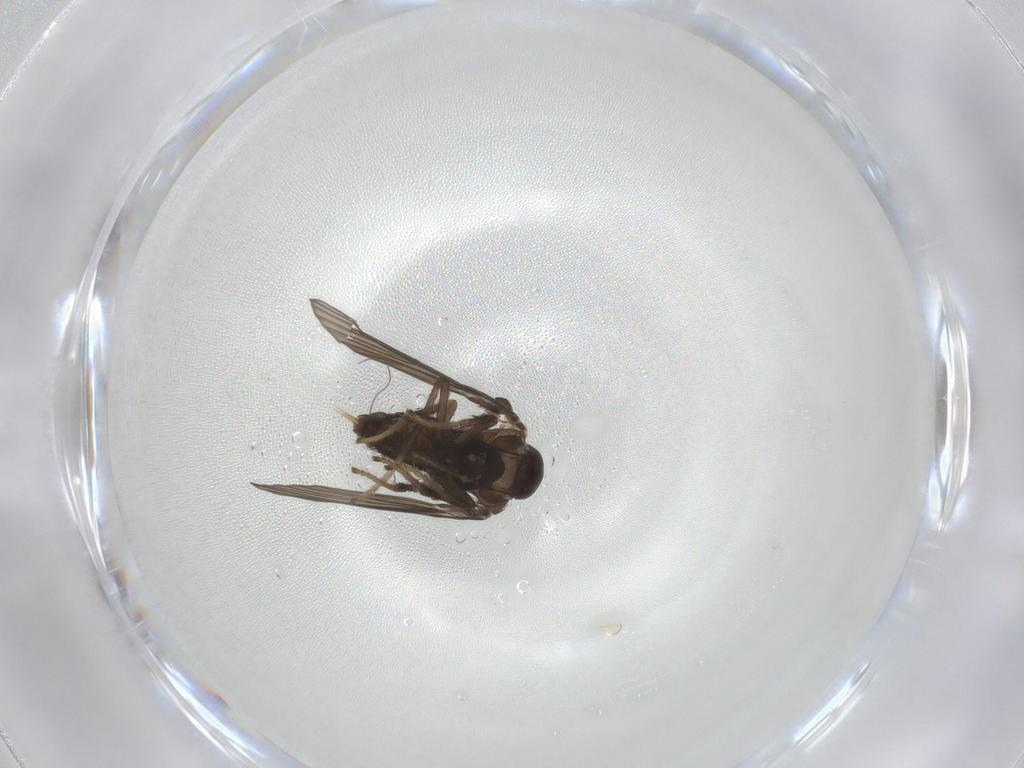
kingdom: Animalia
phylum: Arthropoda
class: Insecta
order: Diptera
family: Psychodidae
